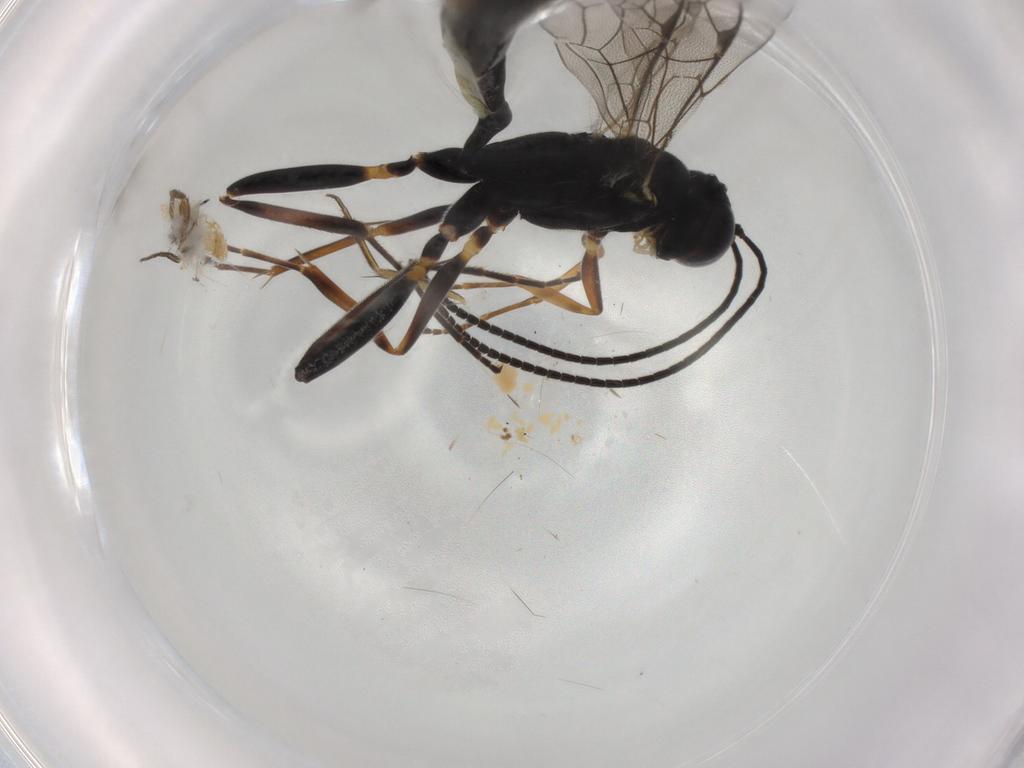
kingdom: Animalia
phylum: Arthropoda
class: Insecta
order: Hymenoptera
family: Ichneumonidae
